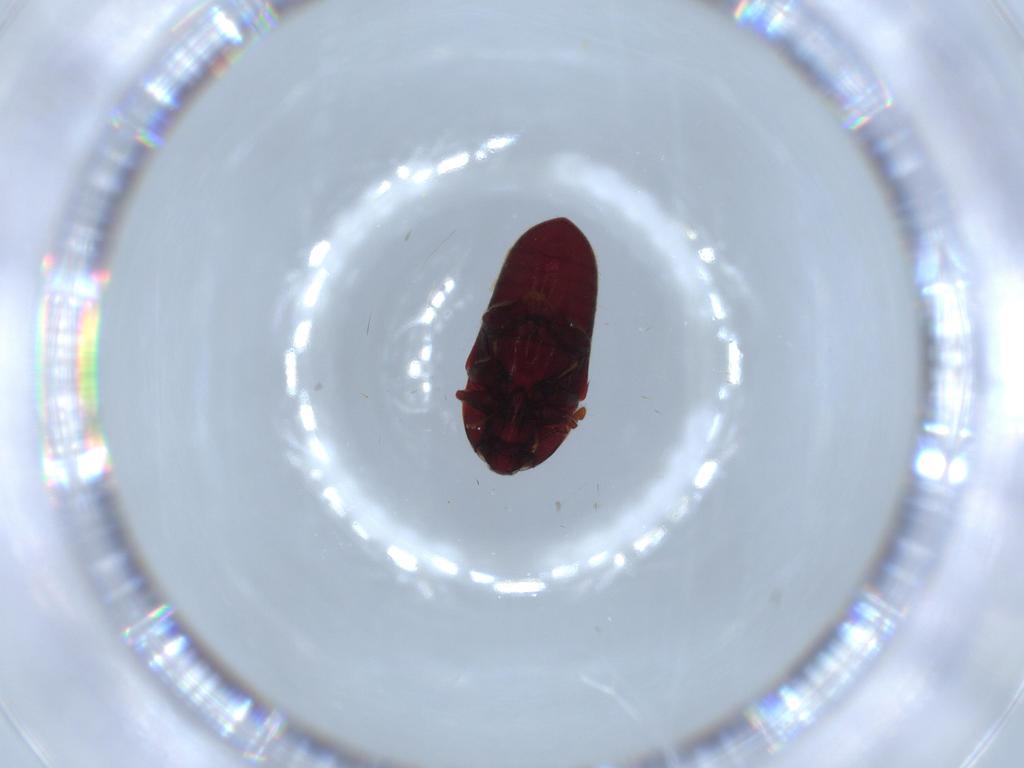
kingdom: Animalia
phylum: Arthropoda
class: Insecta
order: Coleoptera
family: Throscidae
